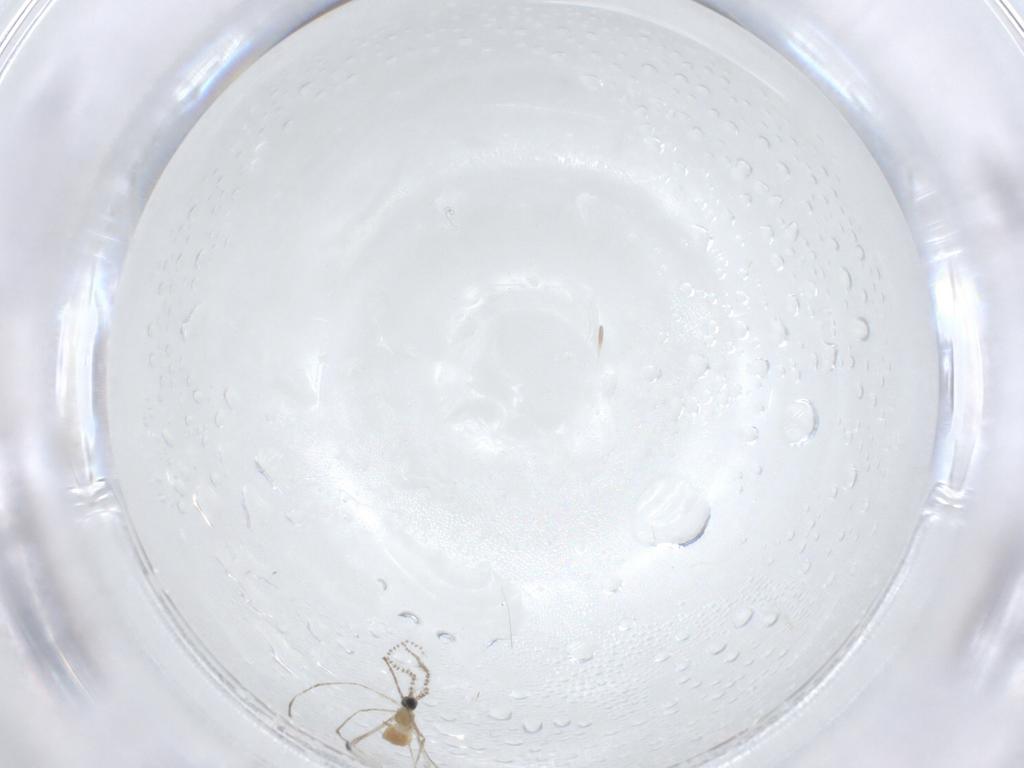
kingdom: Animalia
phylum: Arthropoda
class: Insecta
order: Diptera
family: Cecidomyiidae
